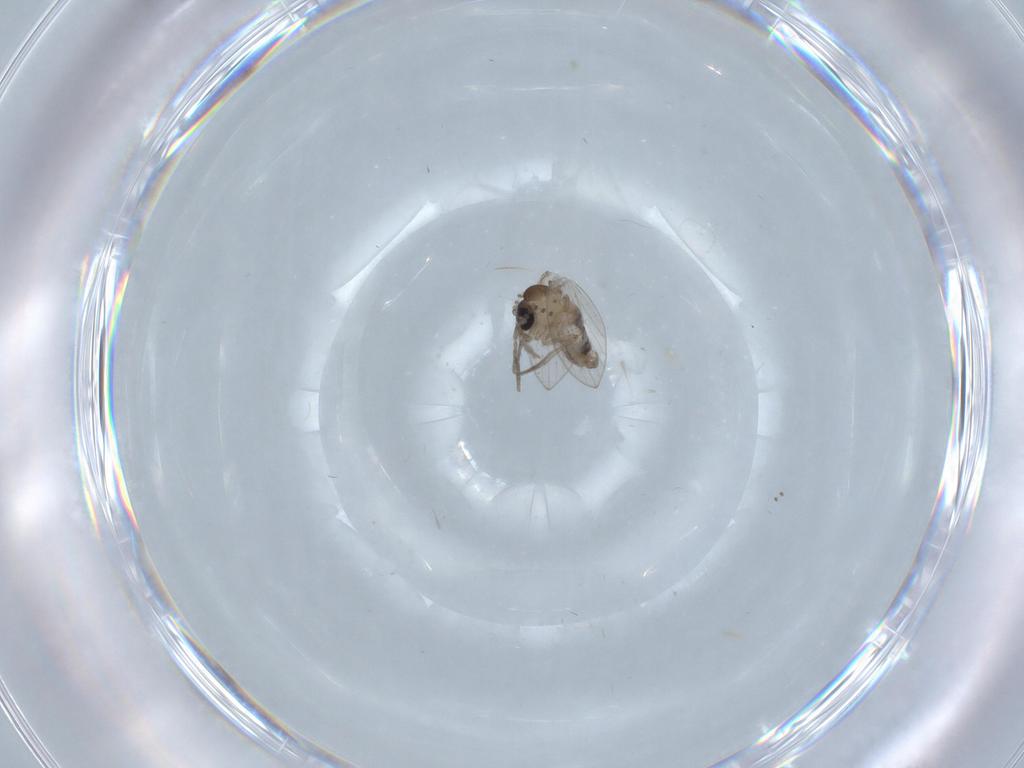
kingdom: Animalia
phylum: Arthropoda
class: Insecta
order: Diptera
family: Psychodidae
